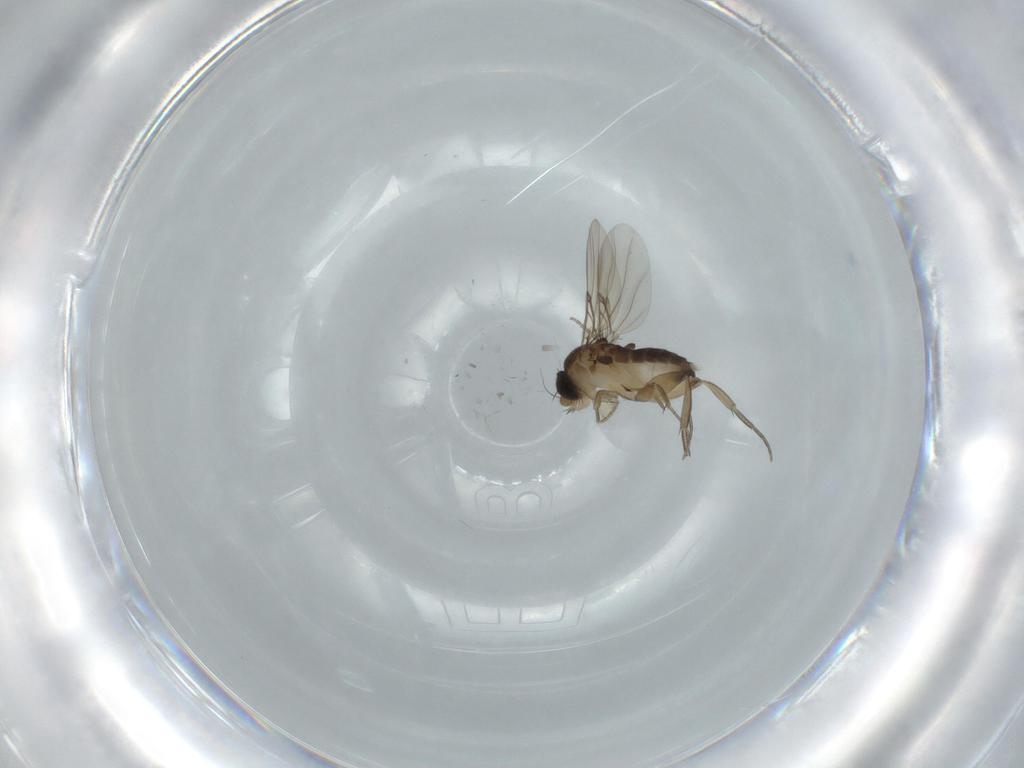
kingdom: Animalia
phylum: Arthropoda
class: Insecta
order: Diptera
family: Phoridae
